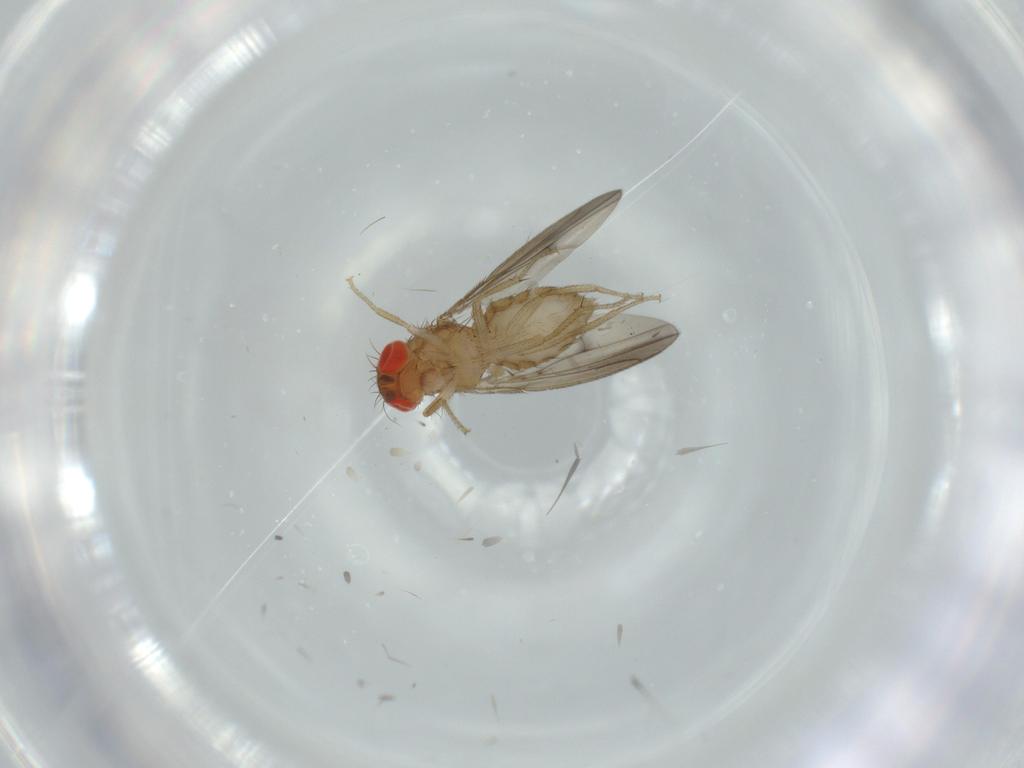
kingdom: Animalia
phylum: Arthropoda
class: Insecta
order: Diptera
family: Drosophilidae
